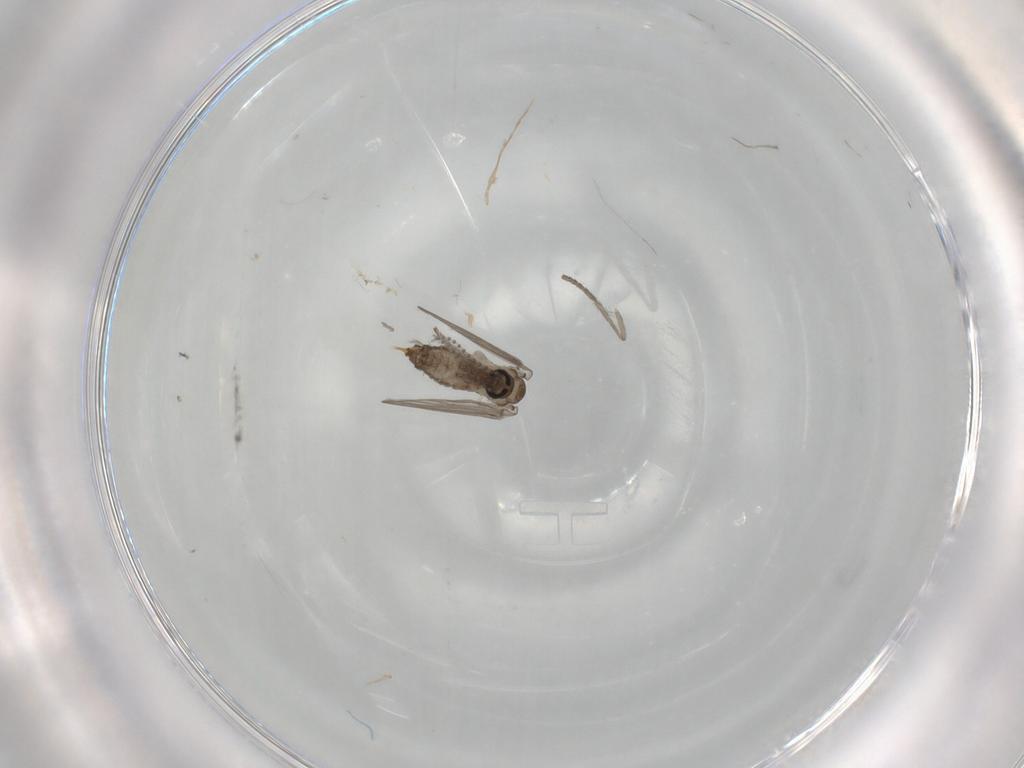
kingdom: Animalia
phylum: Arthropoda
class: Insecta
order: Diptera
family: Psychodidae
